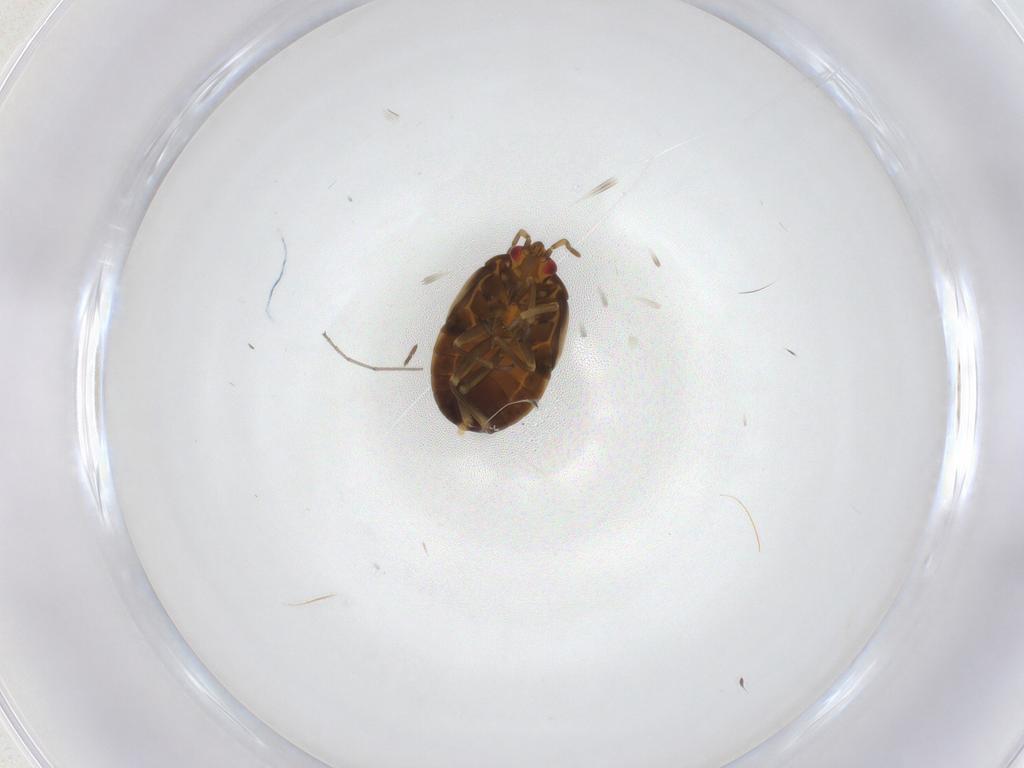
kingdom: Animalia
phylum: Arthropoda
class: Insecta
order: Hemiptera
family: Anthocoridae
